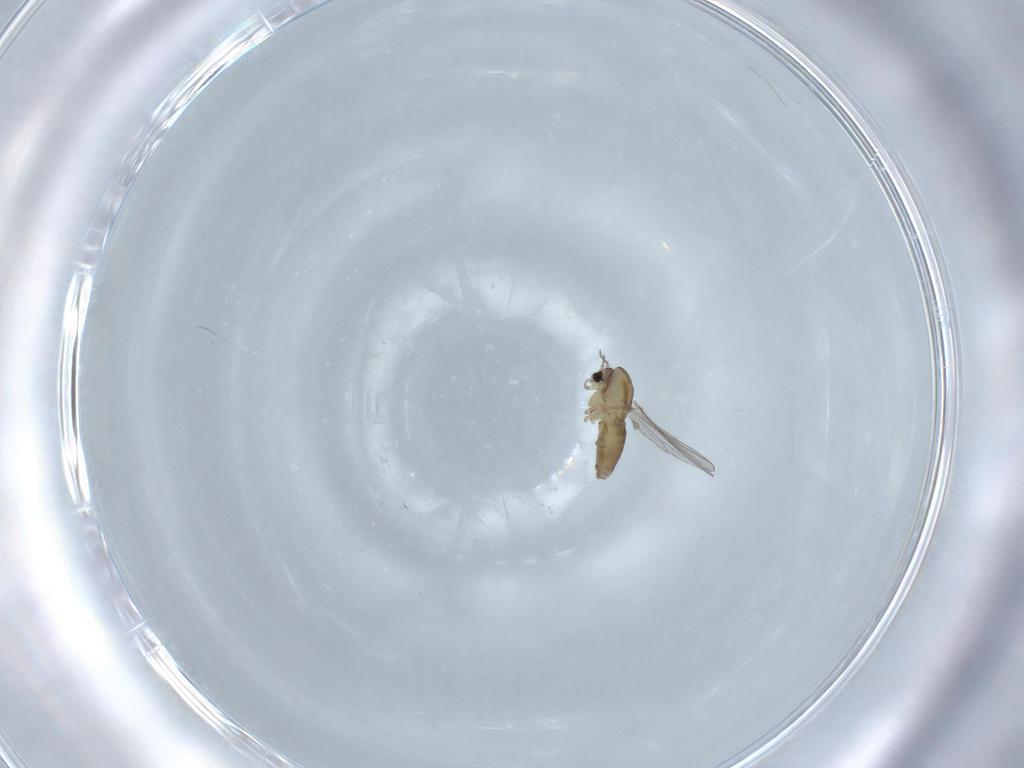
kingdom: Animalia
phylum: Arthropoda
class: Insecta
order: Diptera
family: Chironomidae
